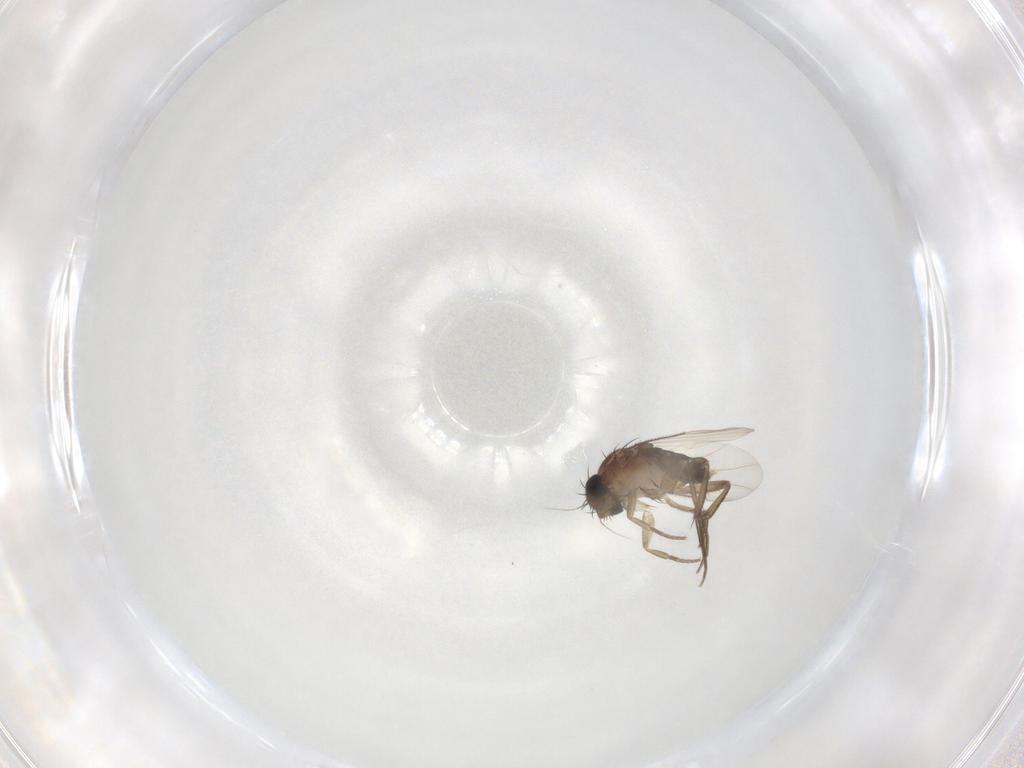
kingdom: Animalia
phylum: Arthropoda
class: Insecta
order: Diptera
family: Phoridae
